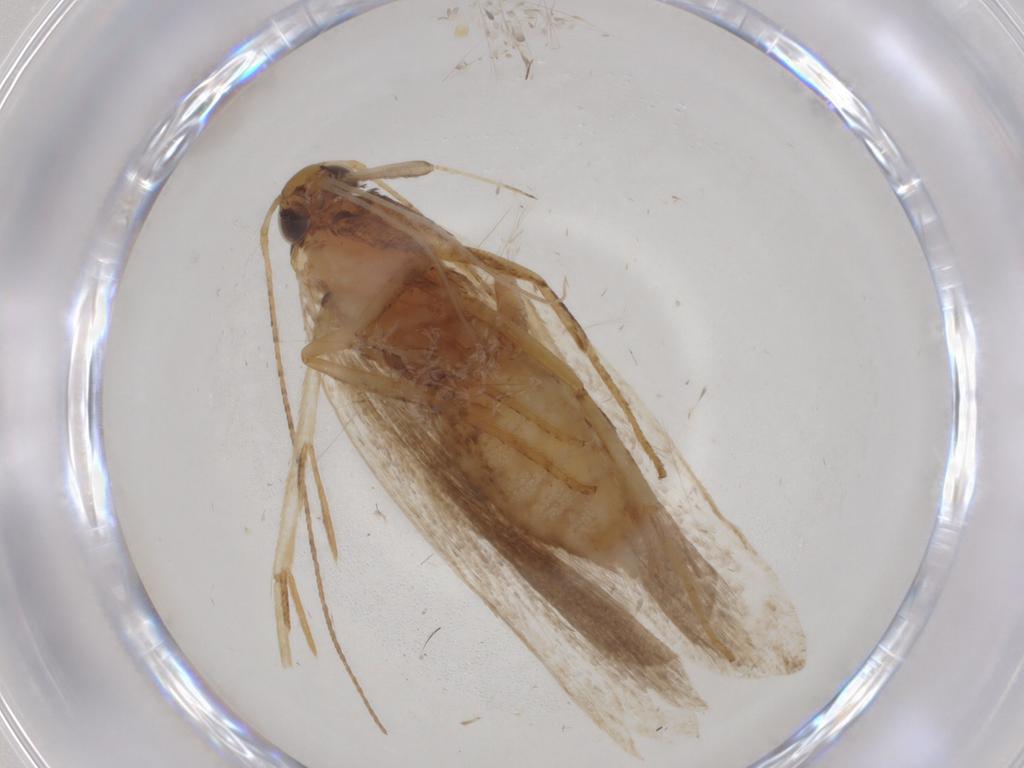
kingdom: Animalia
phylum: Arthropoda
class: Insecta
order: Lepidoptera
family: Gelechiidae
